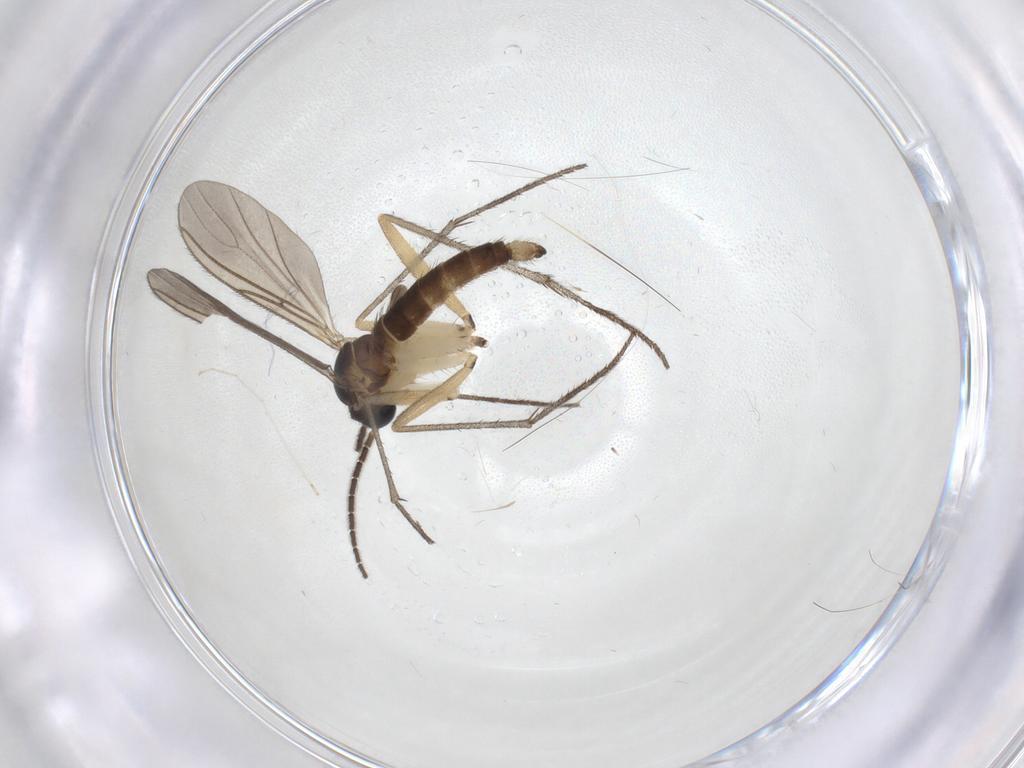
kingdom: Animalia
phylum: Arthropoda
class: Insecta
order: Diptera
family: Sciaridae
